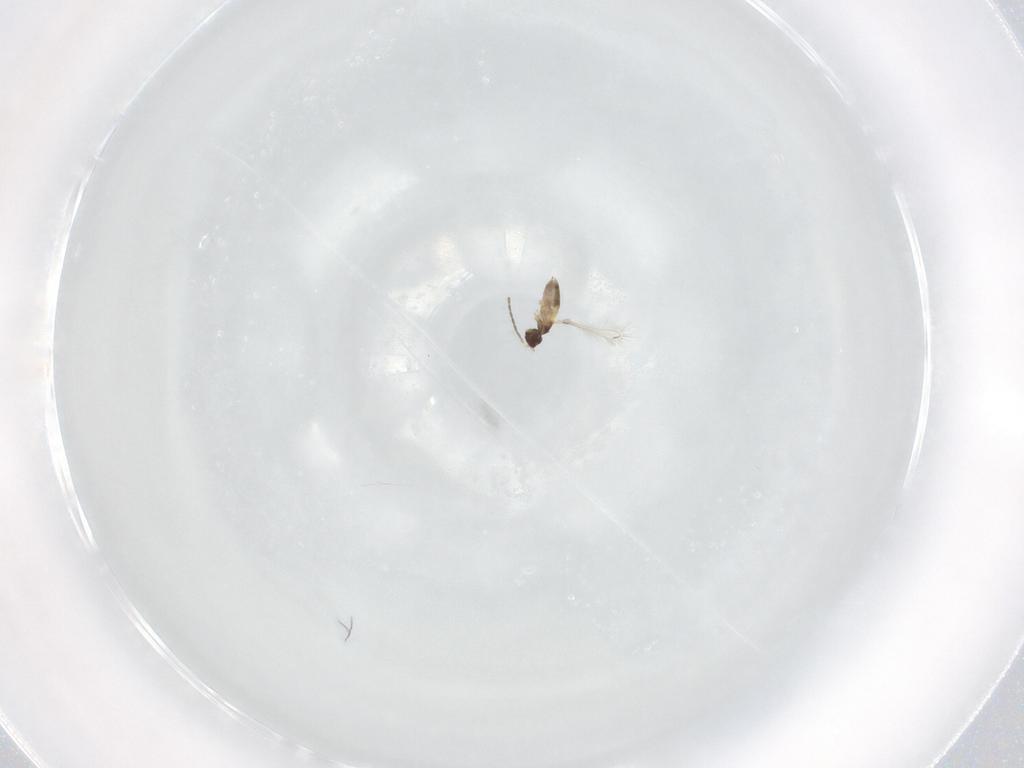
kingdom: Animalia
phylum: Arthropoda
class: Insecta
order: Hymenoptera
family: Mymaridae
